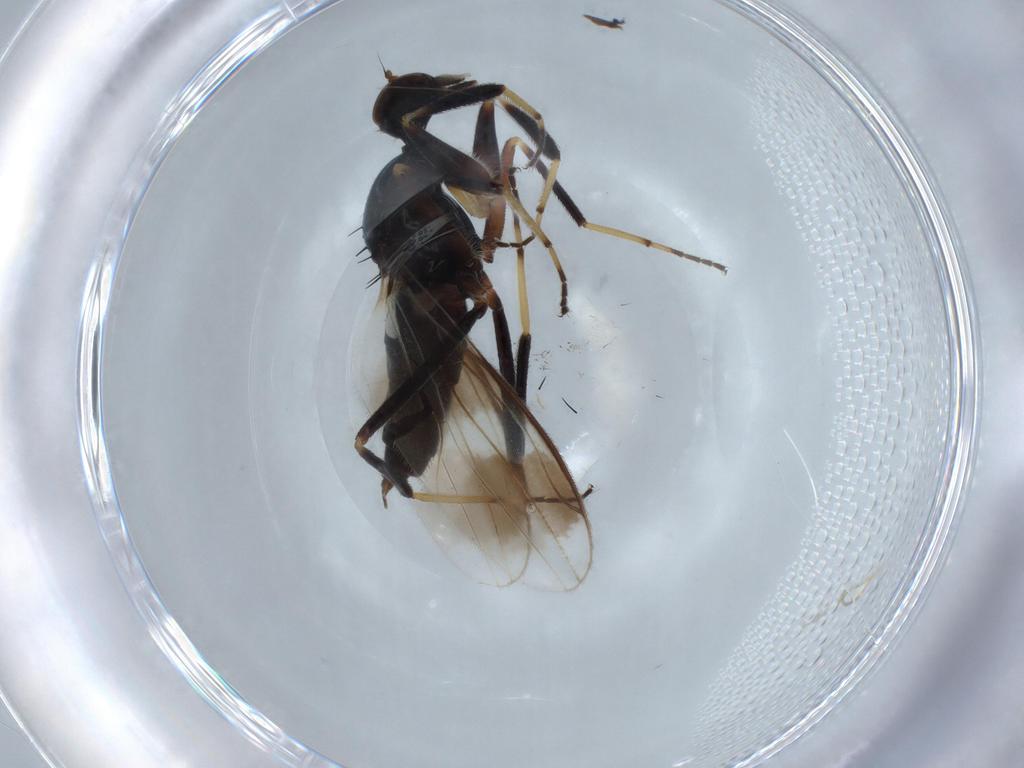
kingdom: Animalia
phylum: Arthropoda
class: Insecta
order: Diptera
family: Hybotidae
